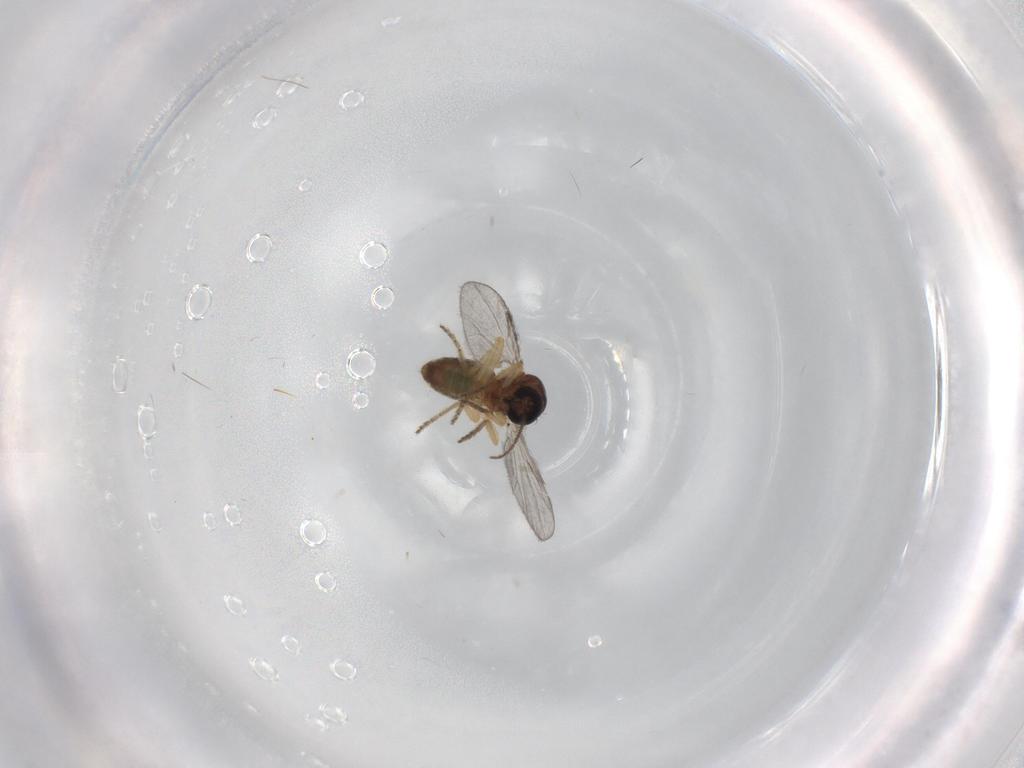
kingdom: Animalia
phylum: Arthropoda
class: Insecta
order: Diptera
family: Ceratopogonidae
